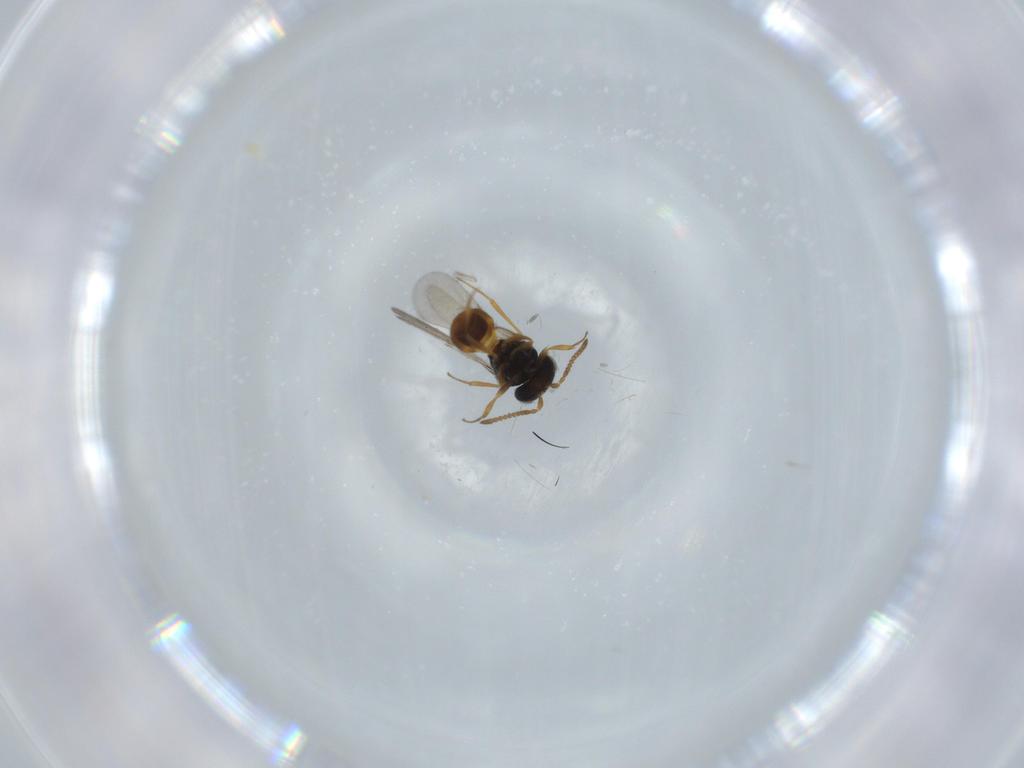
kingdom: Animalia
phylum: Arthropoda
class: Insecta
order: Hymenoptera
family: Scelionidae
